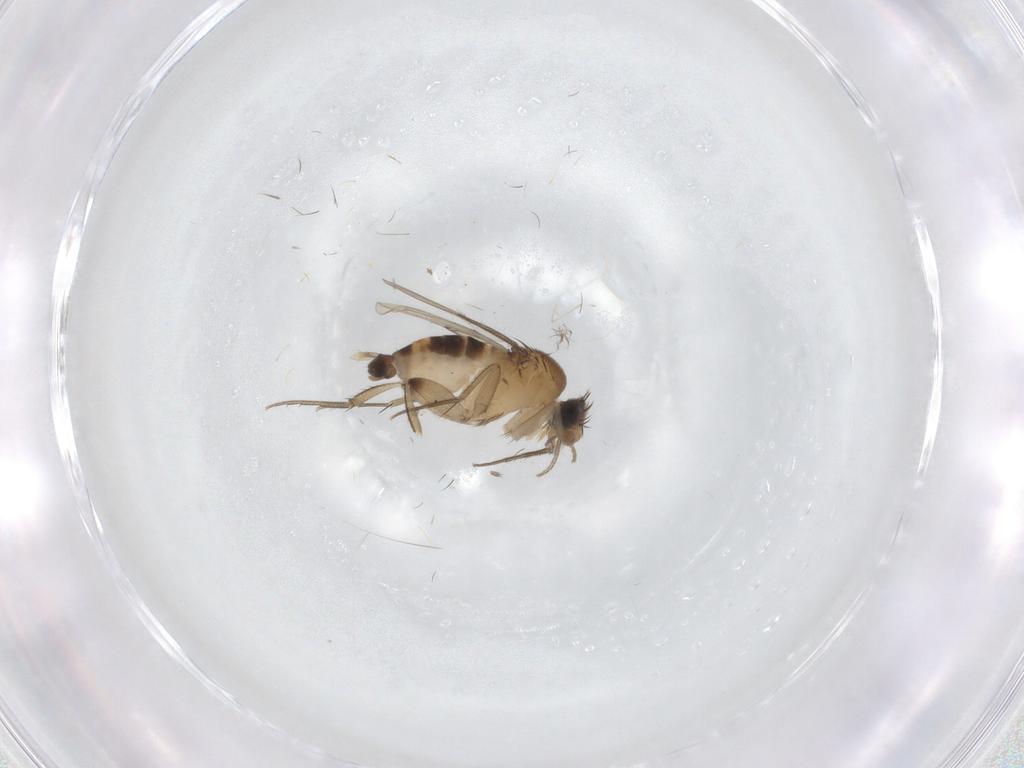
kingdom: Animalia
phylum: Arthropoda
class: Insecta
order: Diptera
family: Phoridae
